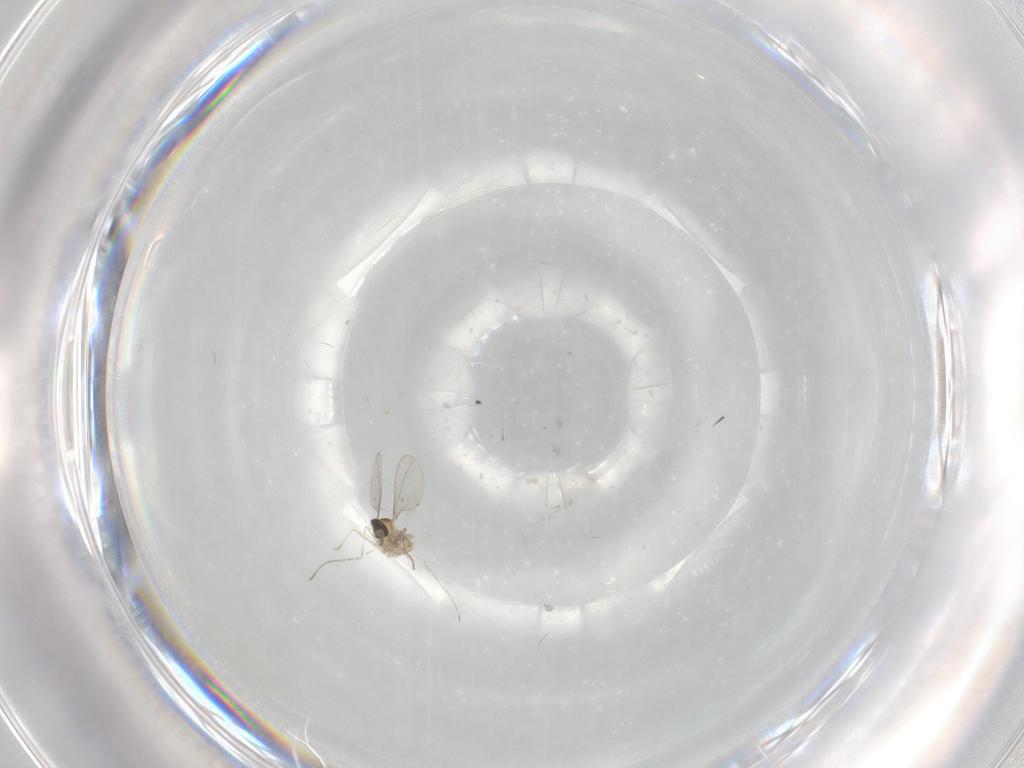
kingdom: Animalia
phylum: Arthropoda
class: Insecta
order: Diptera
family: Cecidomyiidae
